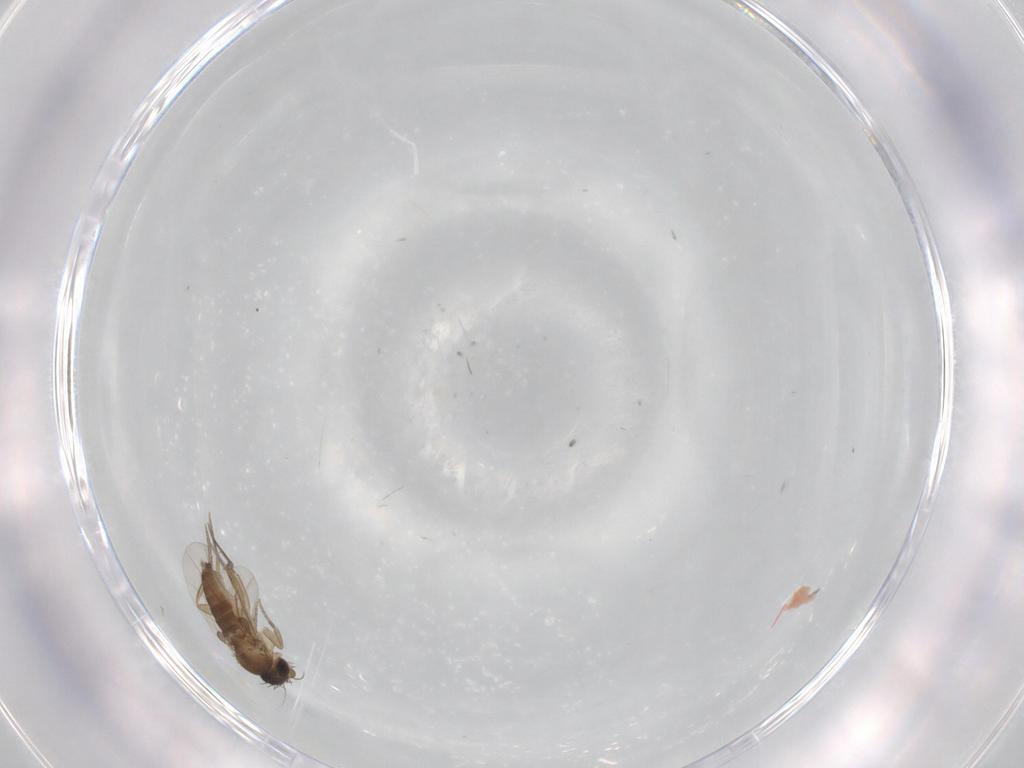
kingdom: Animalia
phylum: Arthropoda
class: Insecta
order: Diptera
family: Phoridae
